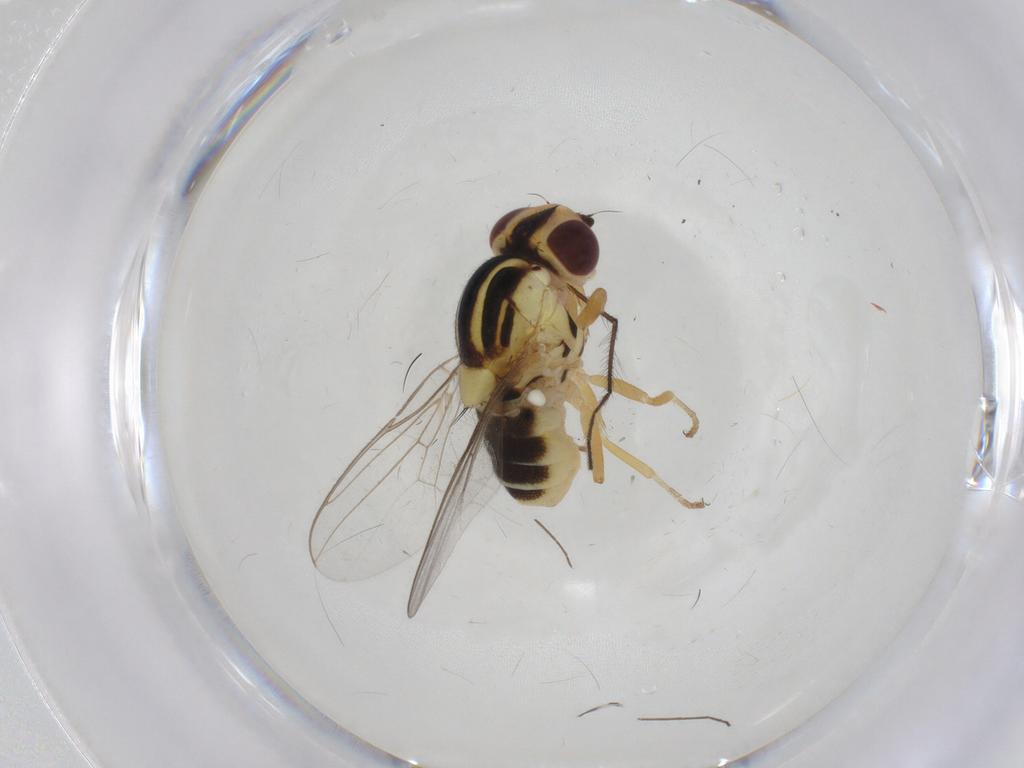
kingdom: Animalia
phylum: Arthropoda
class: Insecta
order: Diptera
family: Chloropidae
